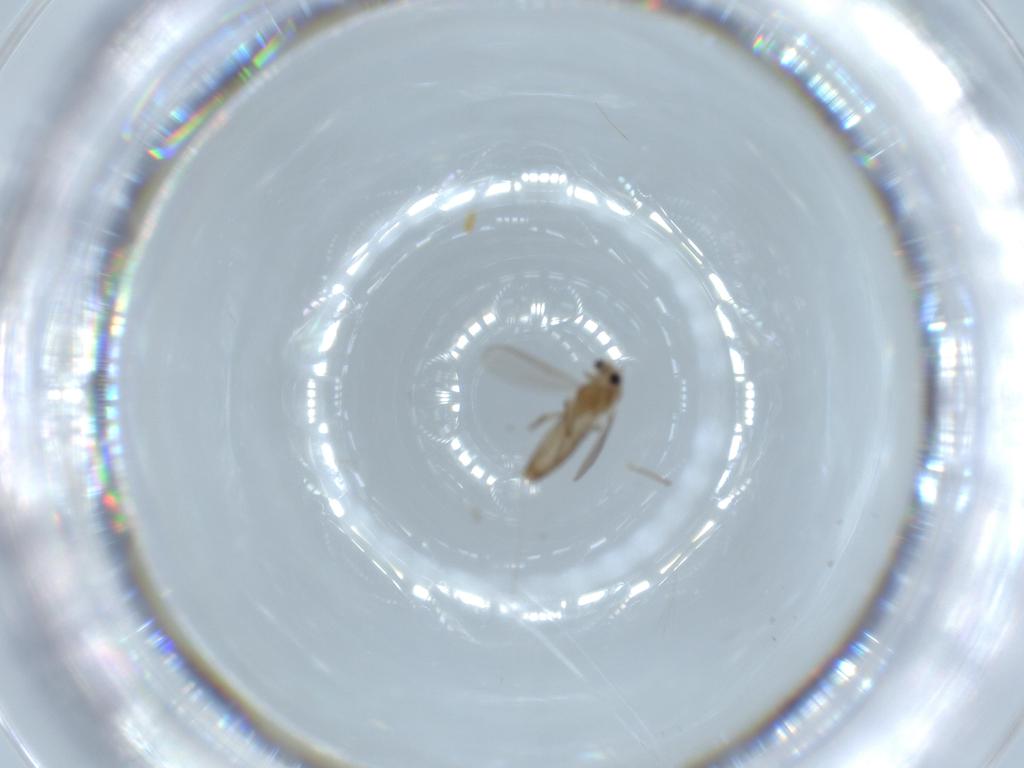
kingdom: Animalia
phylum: Arthropoda
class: Insecta
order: Diptera
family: Chironomidae
